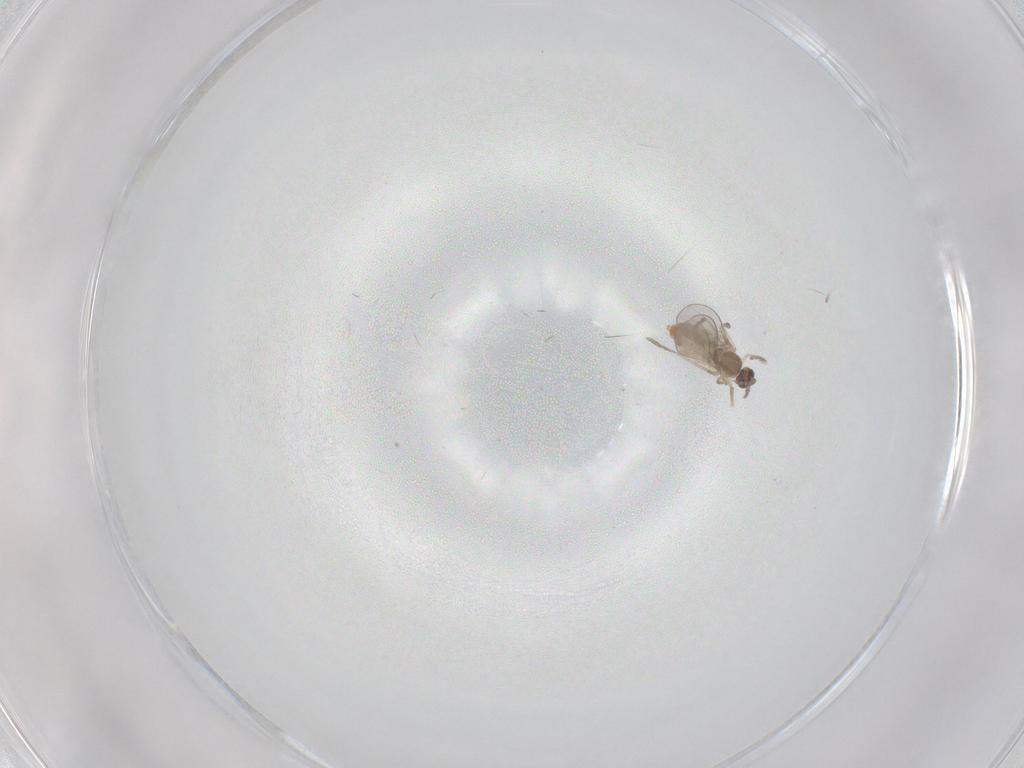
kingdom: Animalia
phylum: Arthropoda
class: Insecta
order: Diptera
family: Cecidomyiidae
